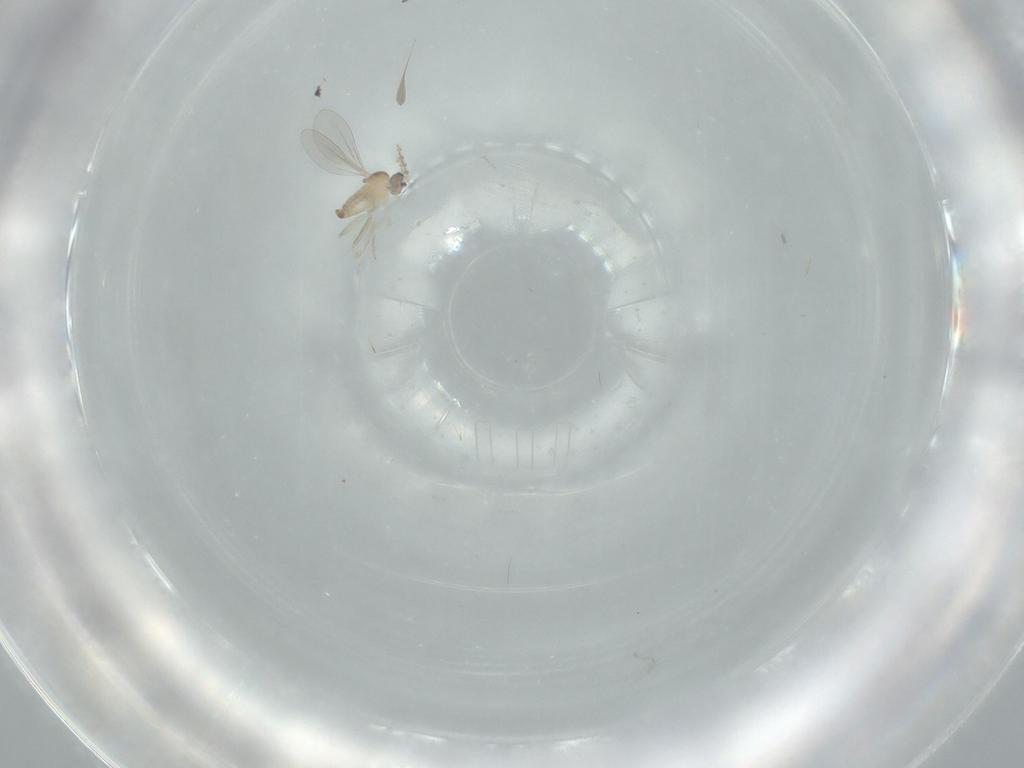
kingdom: Animalia
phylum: Arthropoda
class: Insecta
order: Diptera
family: Cecidomyiidae
